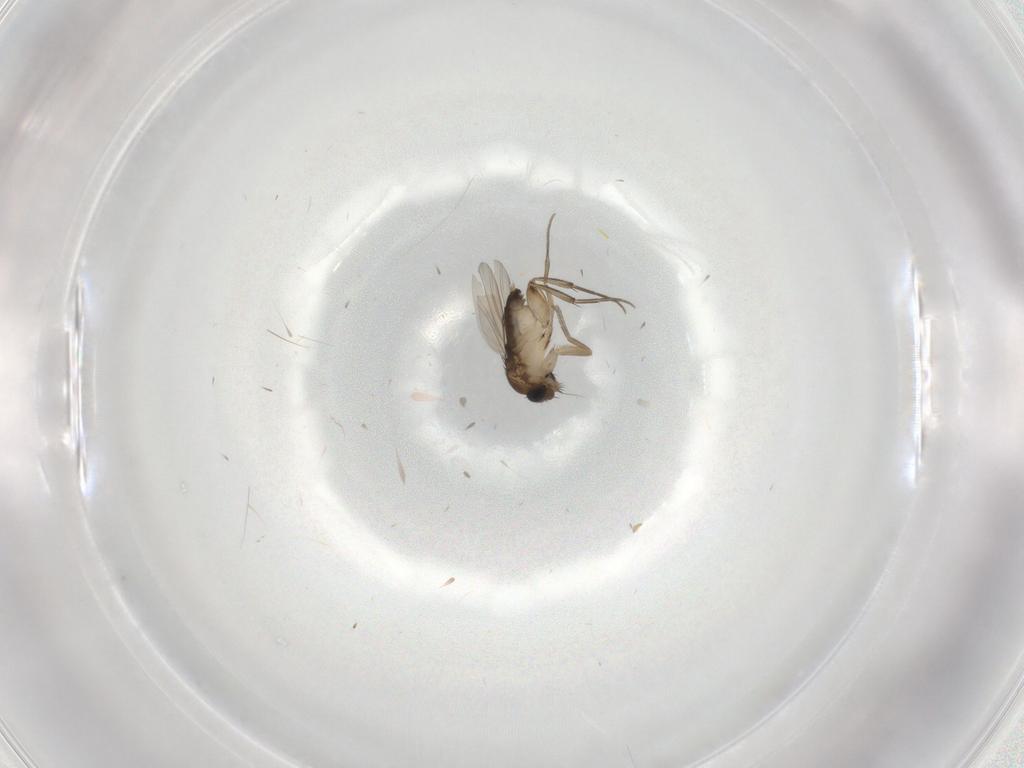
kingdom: Animalia
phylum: Arthropoda
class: Insecta
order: Diptera
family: Phoridae
